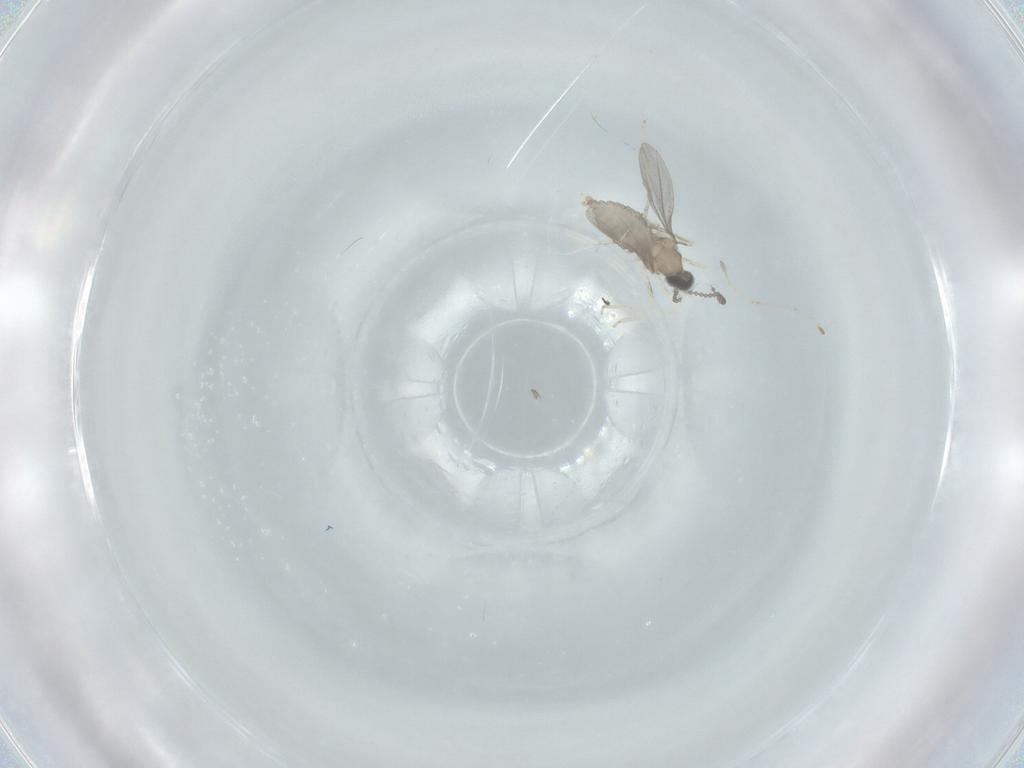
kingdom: Animalia
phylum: Arthropoda
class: Insecta
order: Diptera
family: Cecidomyiidae
